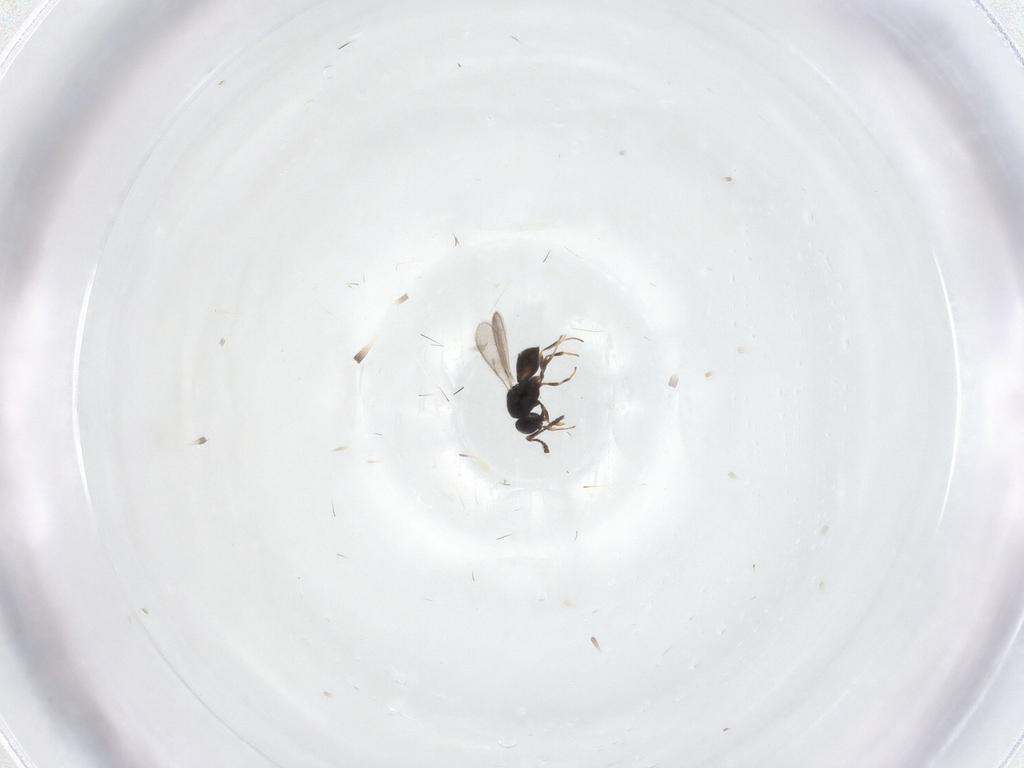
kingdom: Animalia
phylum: Arthropoda
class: Insecta
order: Hymenoptera
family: Scelionidae
